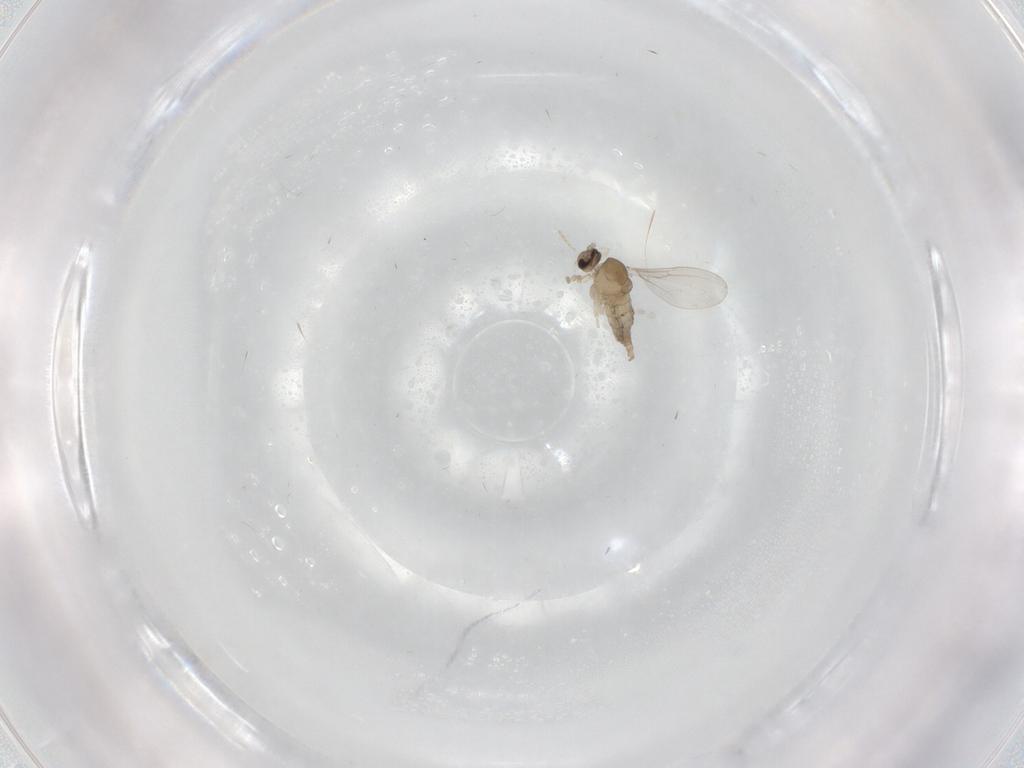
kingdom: Animalia
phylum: Arthropoda
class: Insecta
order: Diptera
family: Cecidomyiidae
